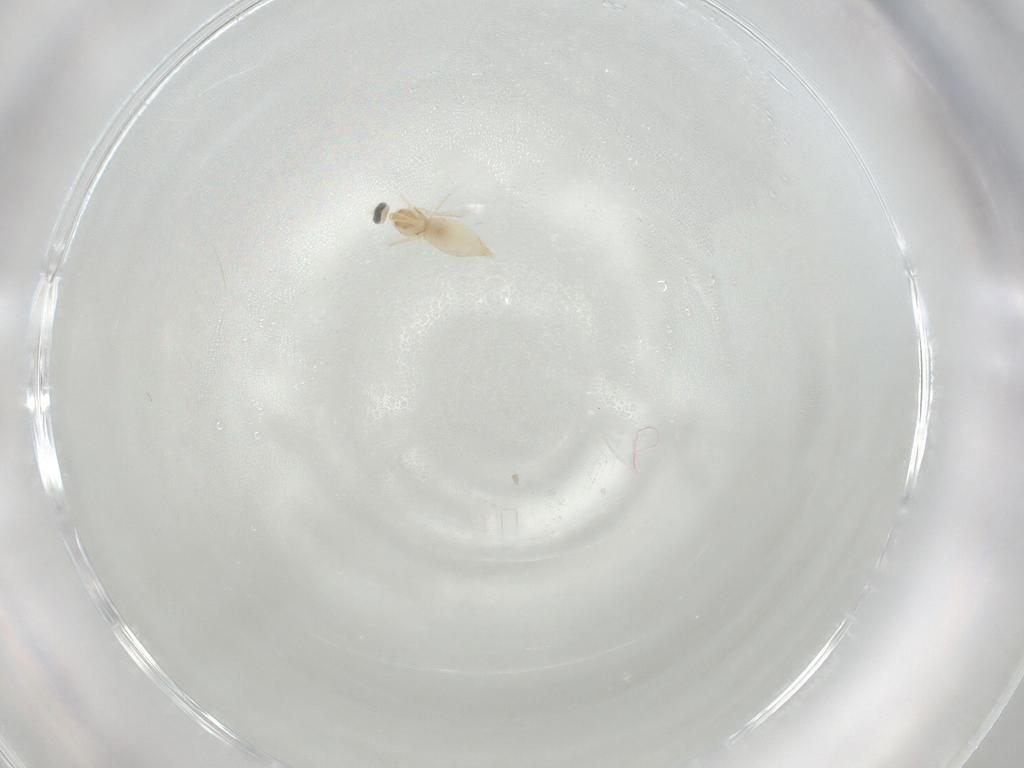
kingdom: Animalia
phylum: Arthropoda
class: Insecta
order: Diptera
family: Cecidomyiidae
